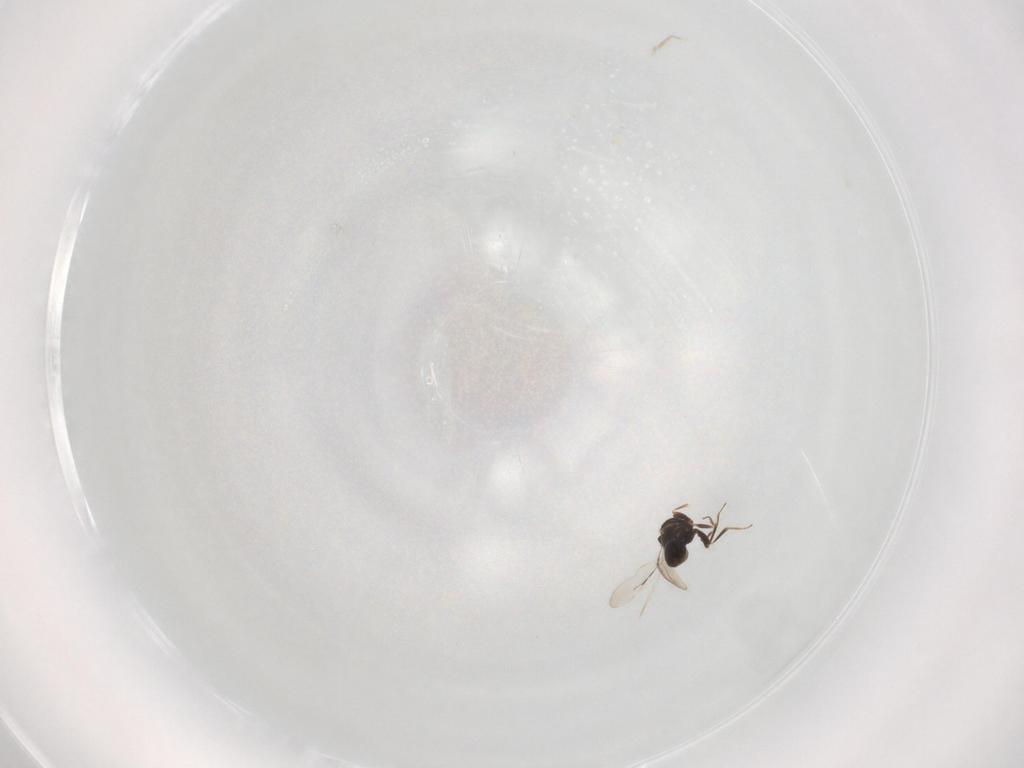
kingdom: Animalia
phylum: Arthropoda
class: Insecta
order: Hymenoptera
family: Ceraphronidae
